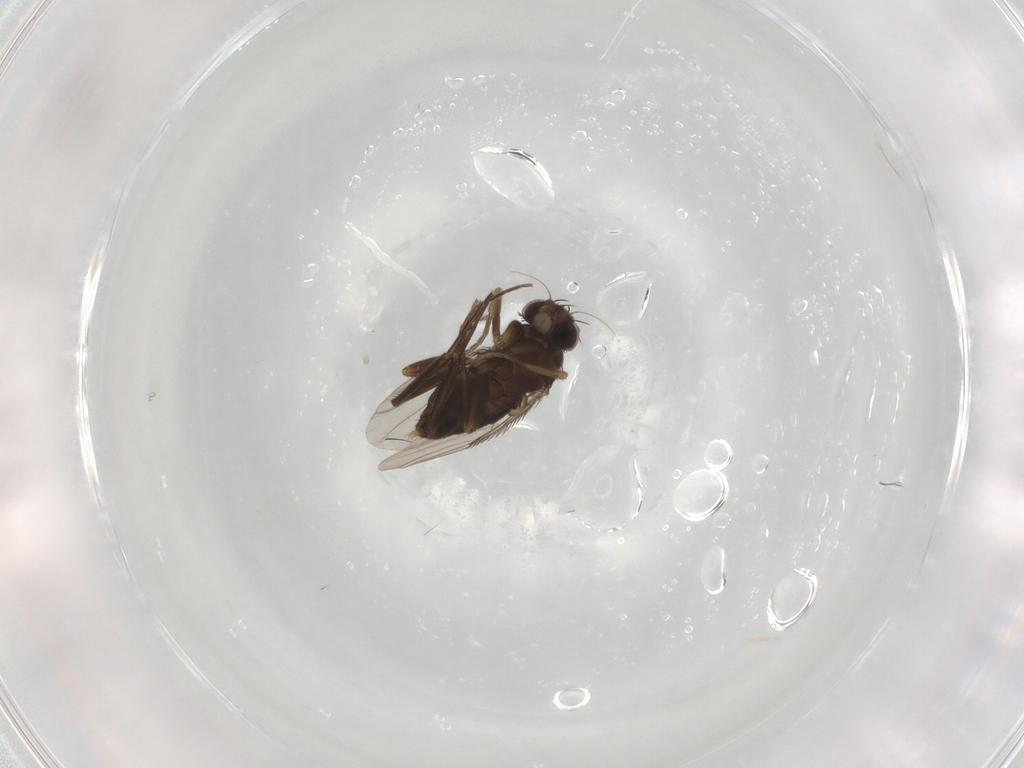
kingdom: Animalia
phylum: Arthropoda
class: Insecta
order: Diptera
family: Phoridae
